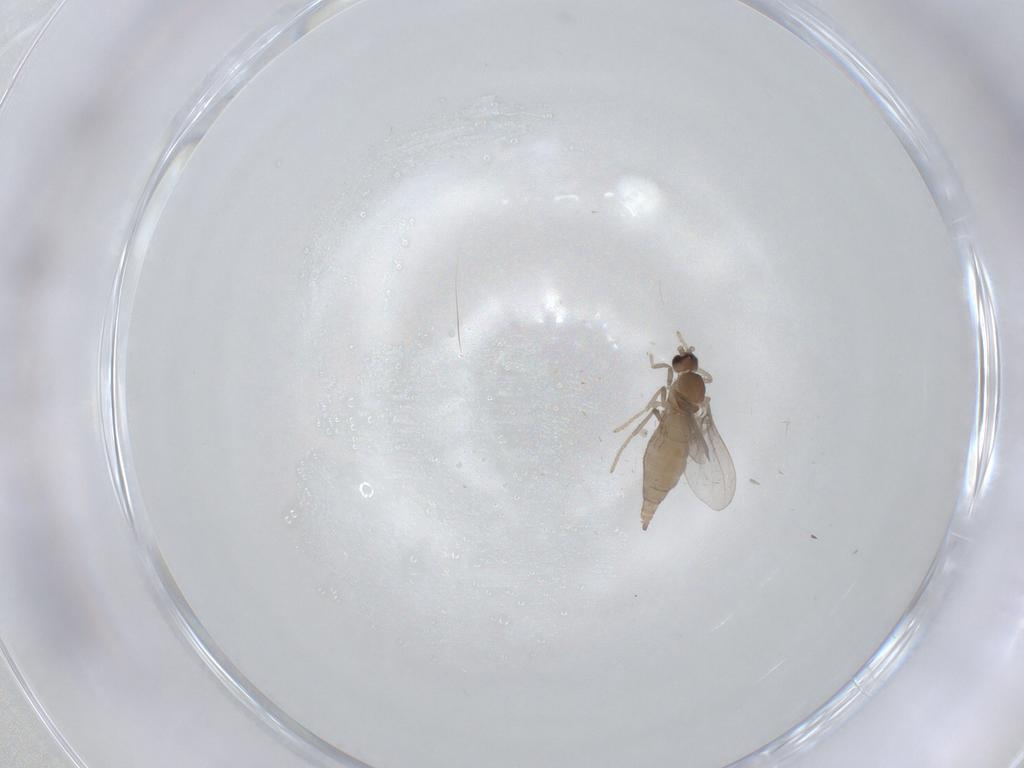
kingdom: Animalia
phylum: Arthropoda
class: Insecta
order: Diptera
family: Cecidomyiidae
